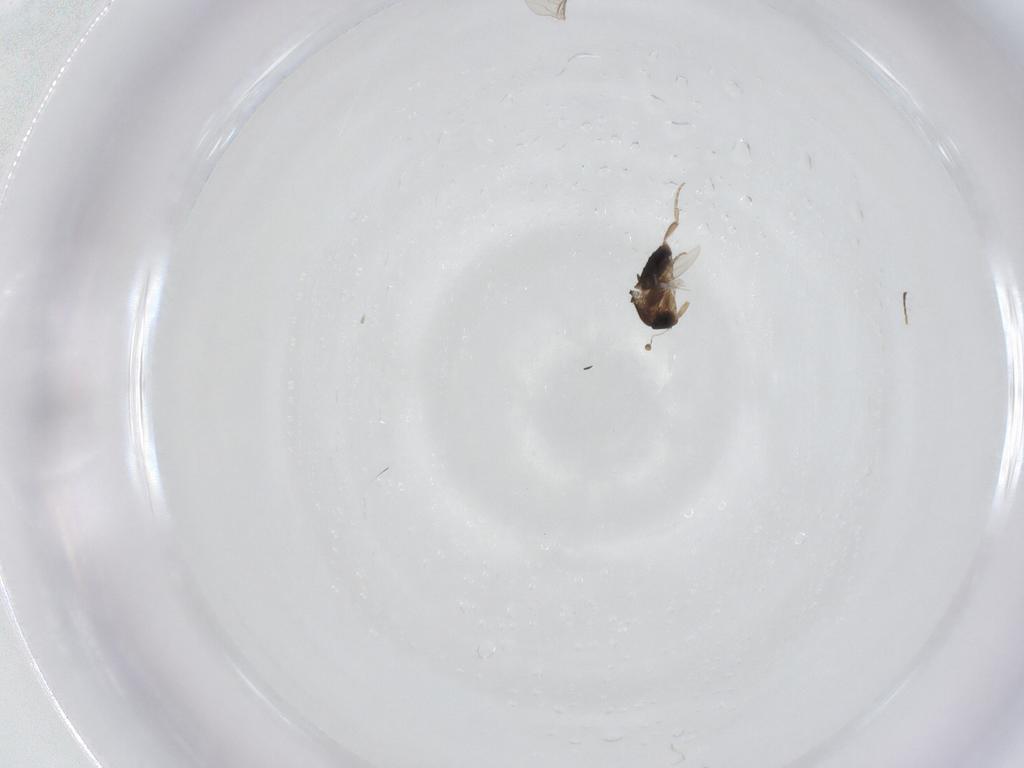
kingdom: Animalia
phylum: Arthropoda
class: Insecta
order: Diptera
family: Phoridae
